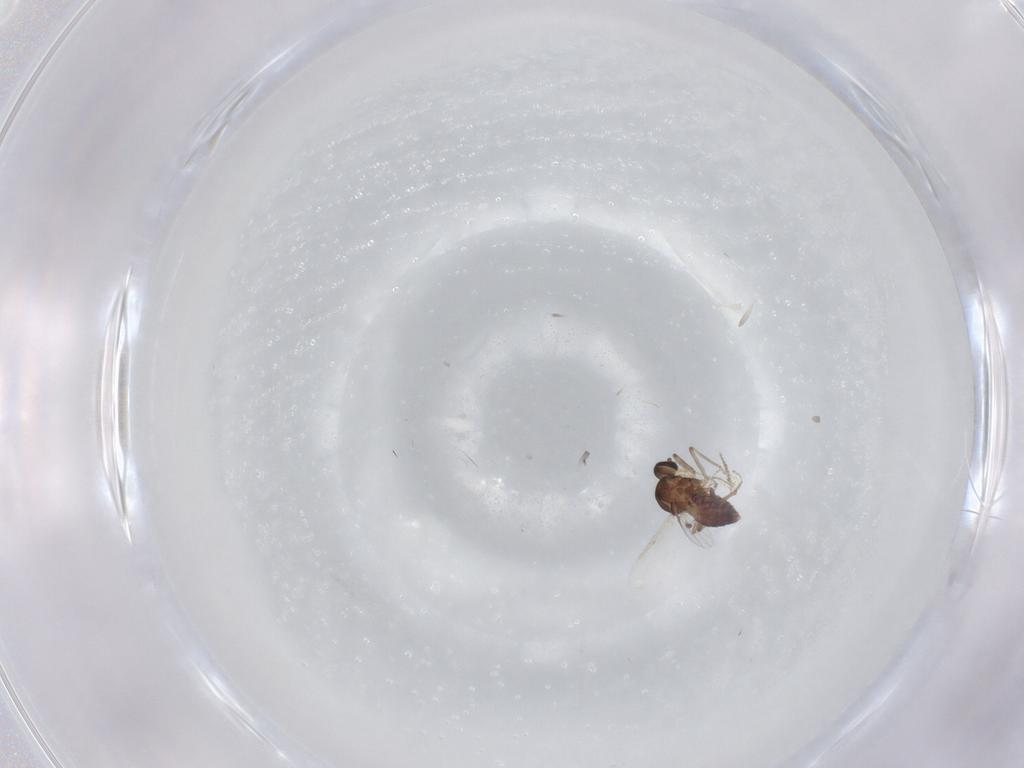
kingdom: Animalia
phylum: Arthropoda
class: Insecta
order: Diptera
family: Ceratopogonidae
